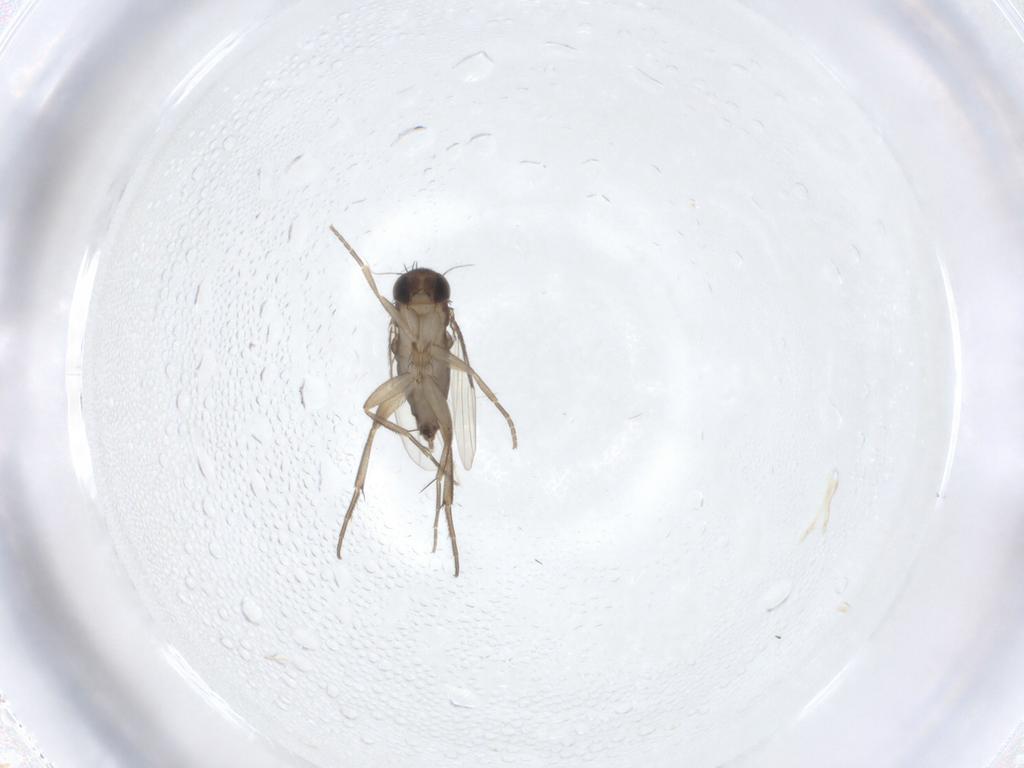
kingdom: Animalia
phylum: Arthropoda
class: Insecta
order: Diptera
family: Phoridae
